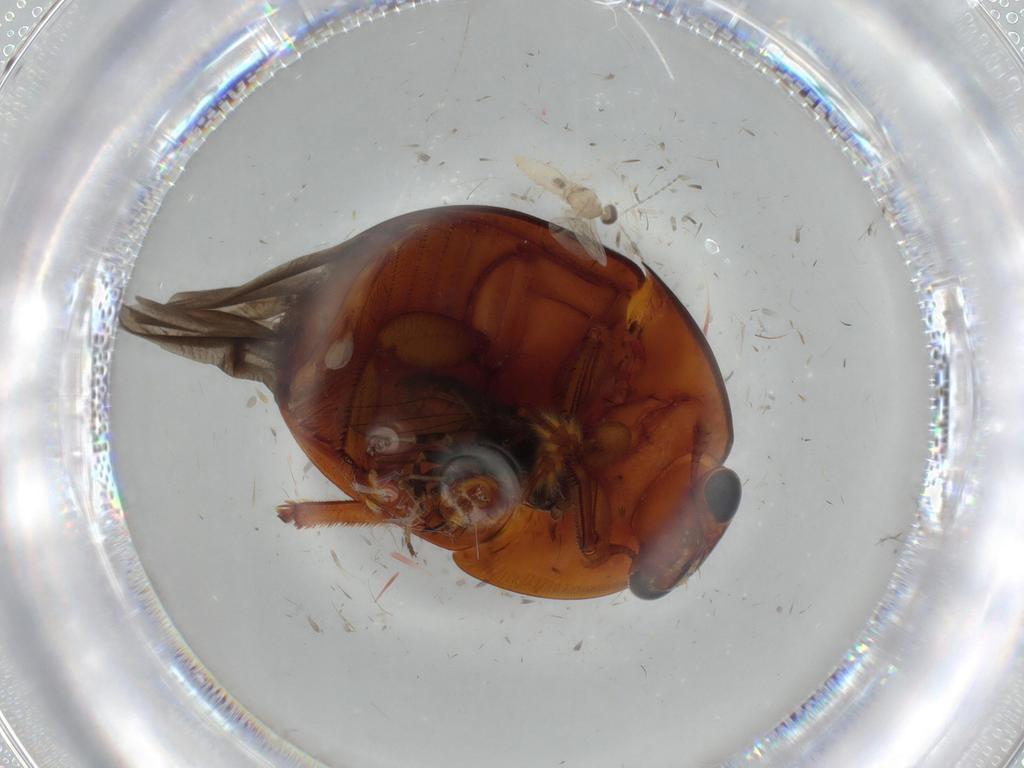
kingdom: Animalia
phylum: Arthropoda
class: Insecta
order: Coleoptera
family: Nitidulidae
